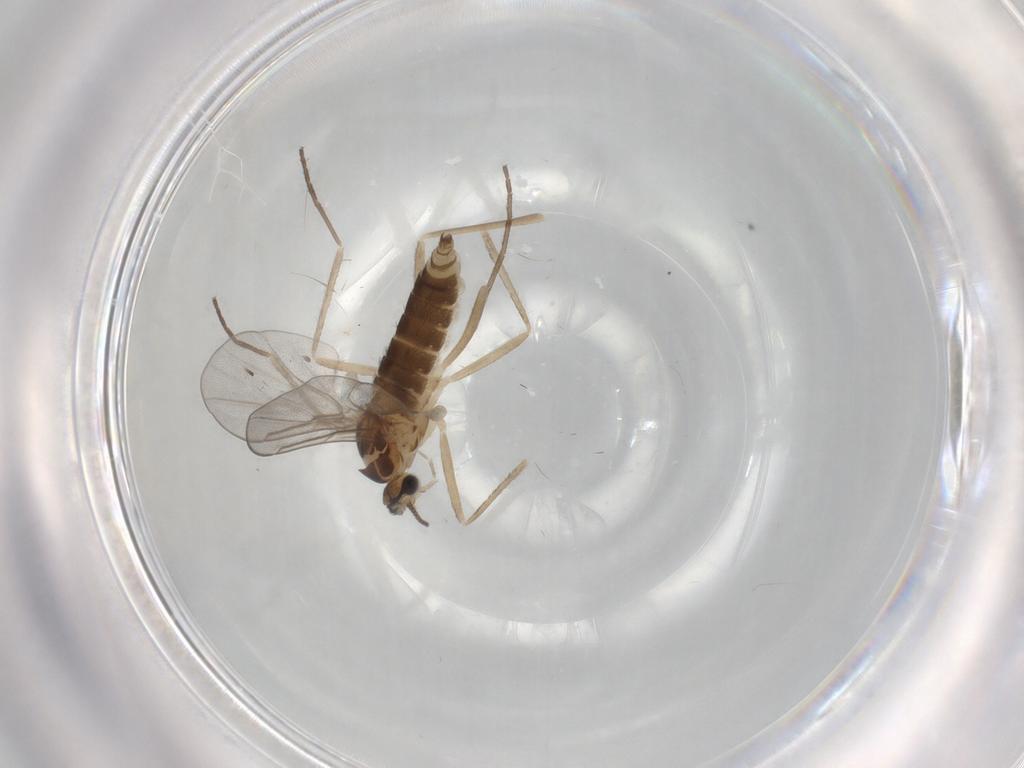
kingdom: Animalia
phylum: Arthropoda
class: Insecta
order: Diptera
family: Cecidomyiidae
